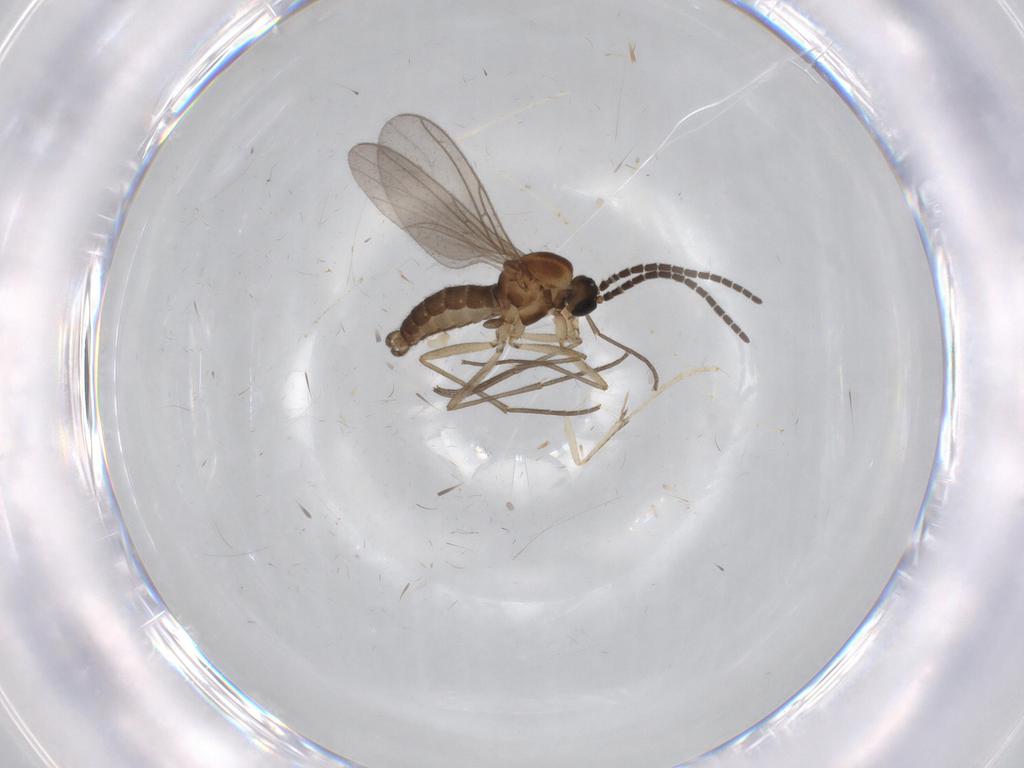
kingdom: Animalia
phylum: Arthropoda
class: Insecta
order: Diptera
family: Sciaridae
